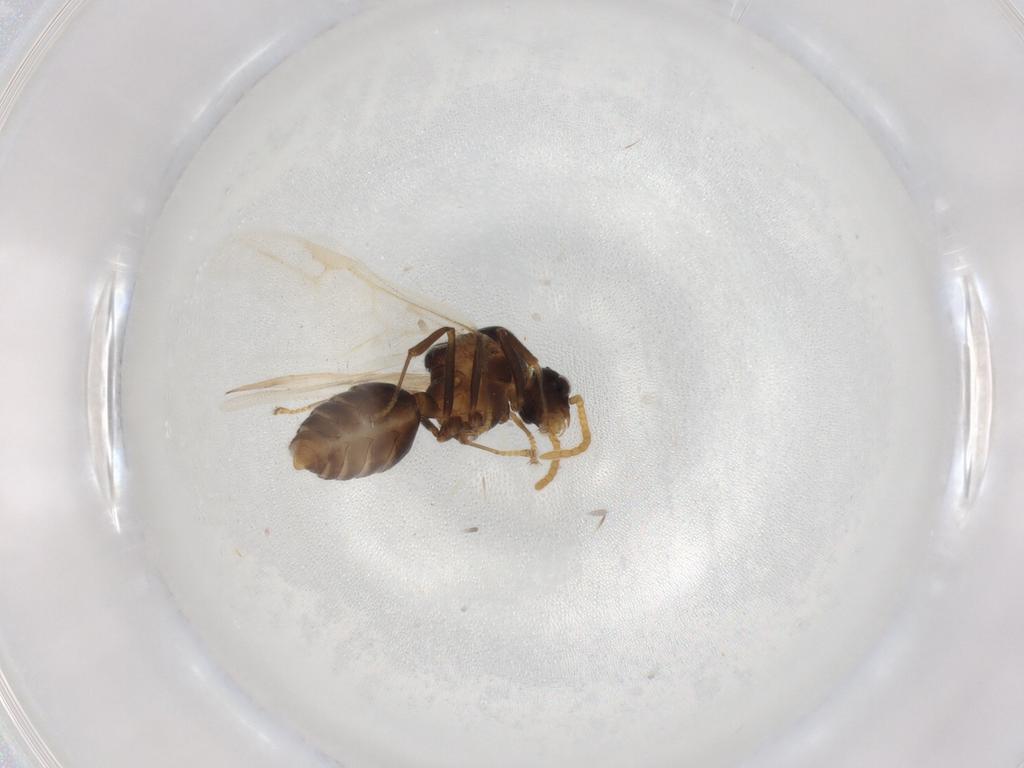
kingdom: Animalia
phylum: Arthropoda
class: Insecta
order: Hymenoptera
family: Formicidae
